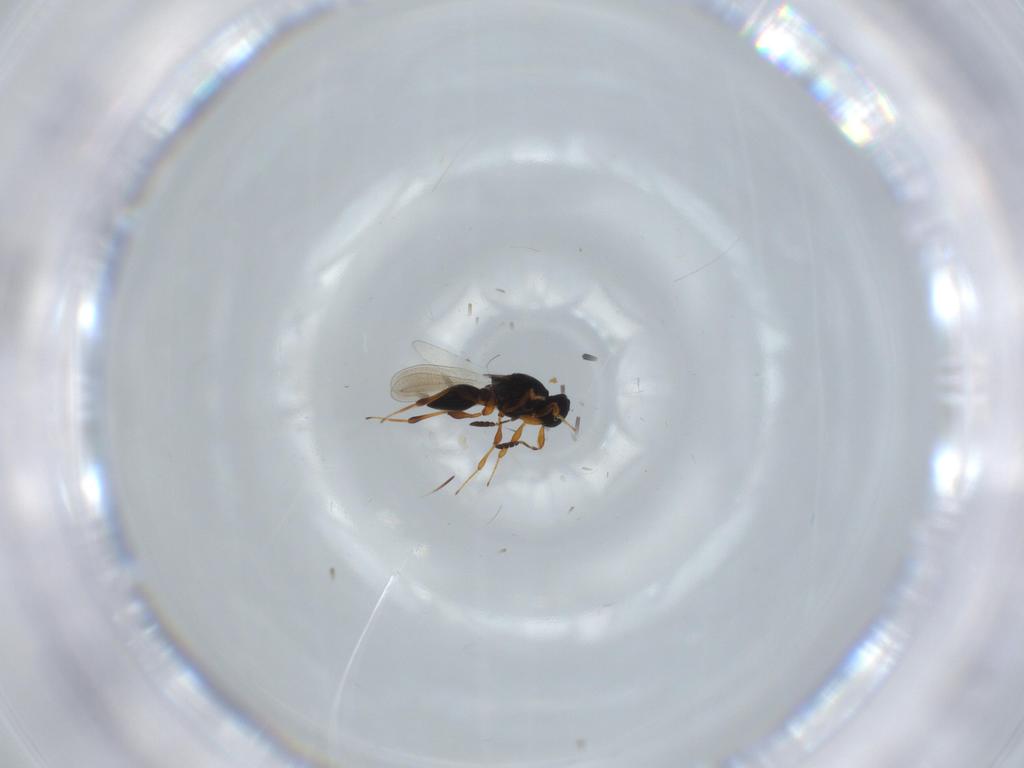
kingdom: Animalia
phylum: Arthropoda
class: Insecta
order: Hymenoptera
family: Platygastridae
